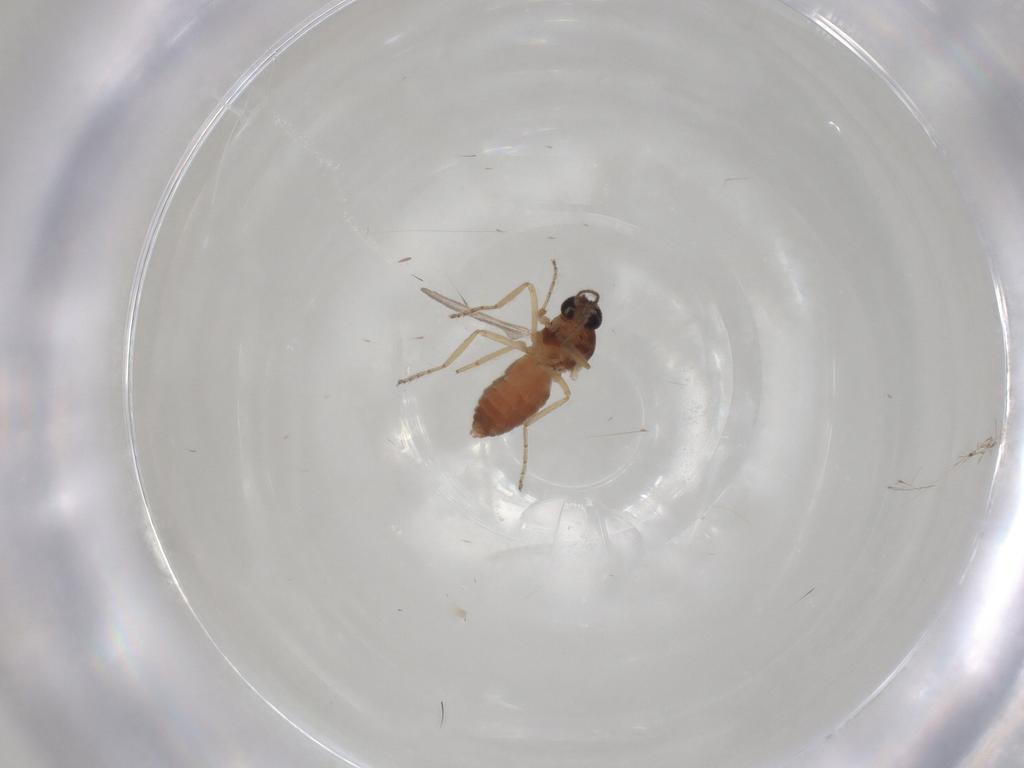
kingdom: Animalia
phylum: Arthropoda
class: Insecta
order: Diptera
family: Ceratopogonidae
